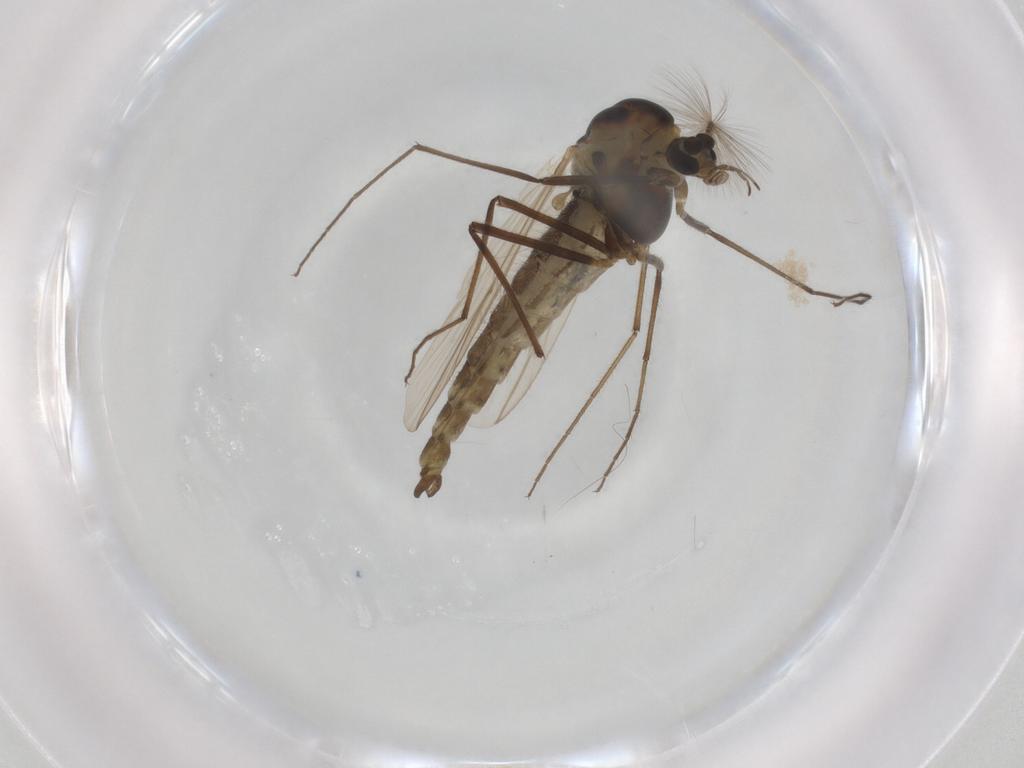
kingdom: Animalia
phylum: Arthropoda
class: Insecta
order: Diptera
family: Chironomidae
